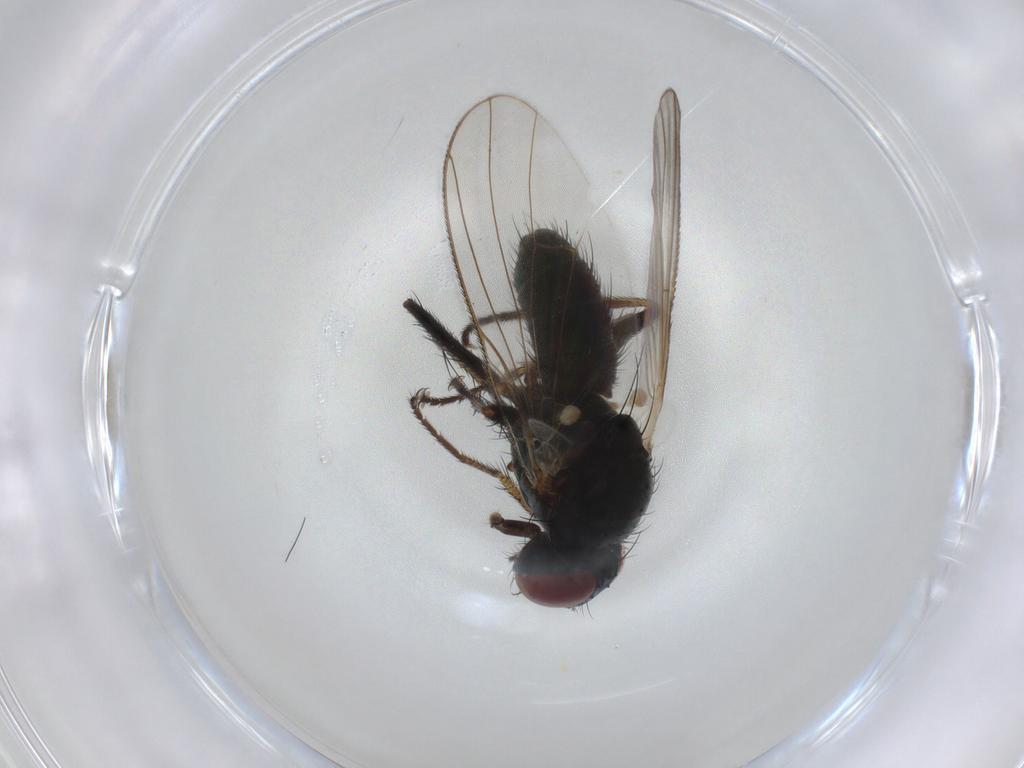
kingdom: Animalia
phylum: Arthropoda
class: Insecta
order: Diptera
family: Muscidae
